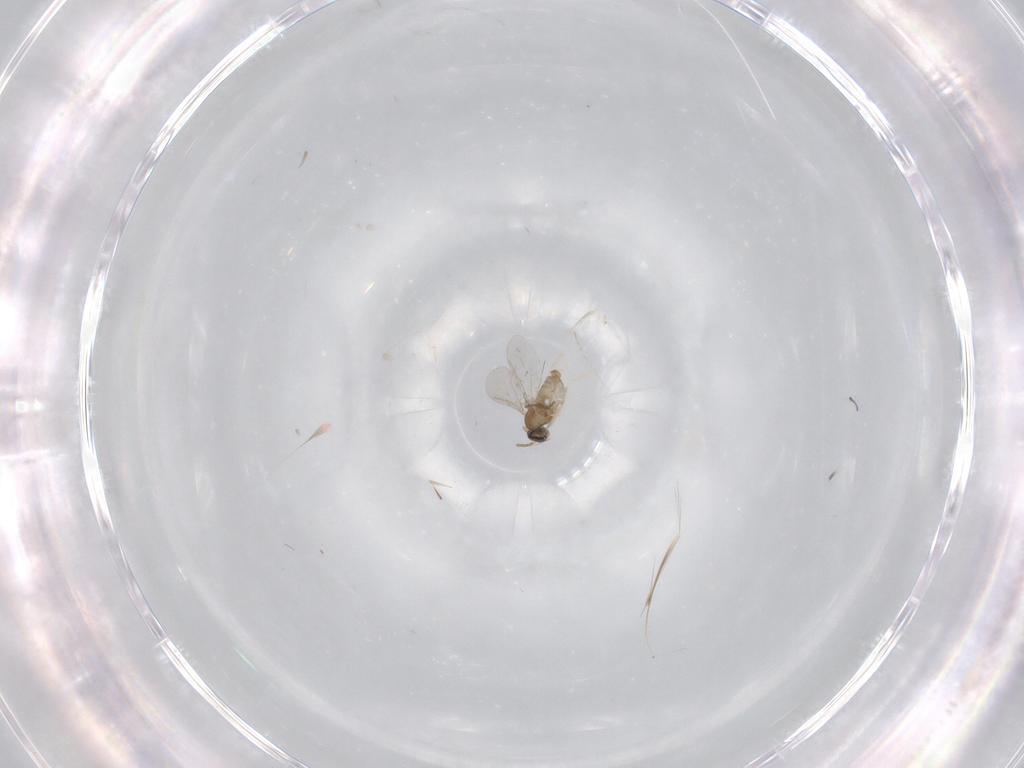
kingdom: Animalia
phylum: Arthropoda
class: Insecta
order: Diptera
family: Cecidomyiidae
